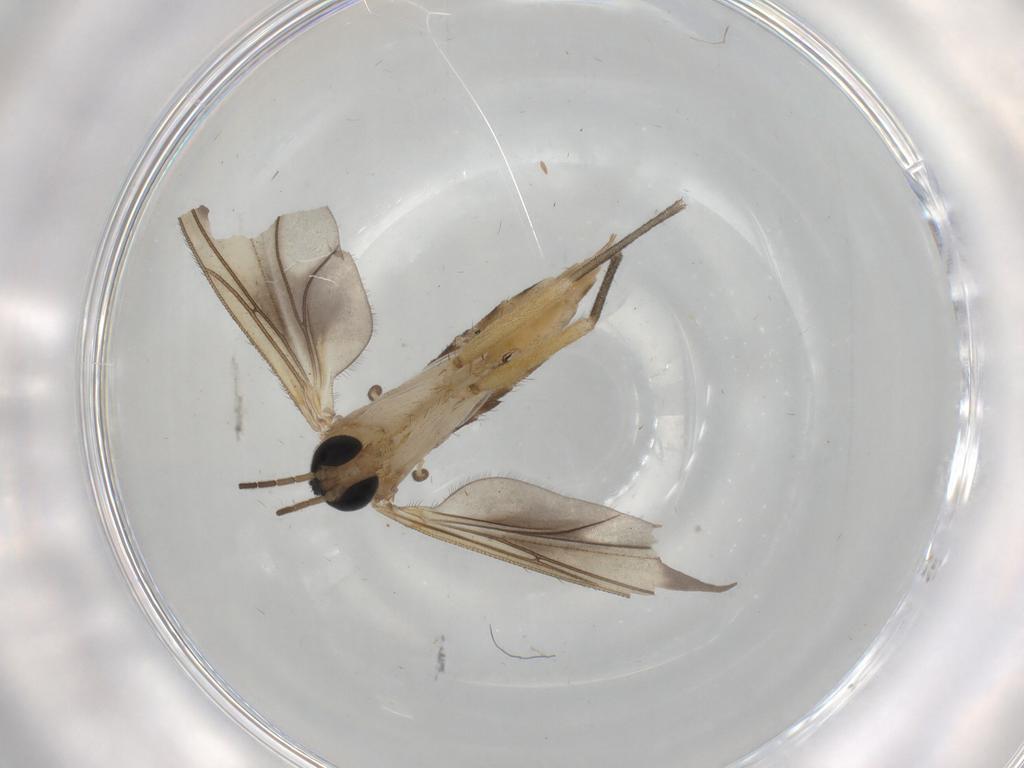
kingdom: Animalia
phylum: Arthropoda
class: Insecta
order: Diptera
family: Sciaridae
